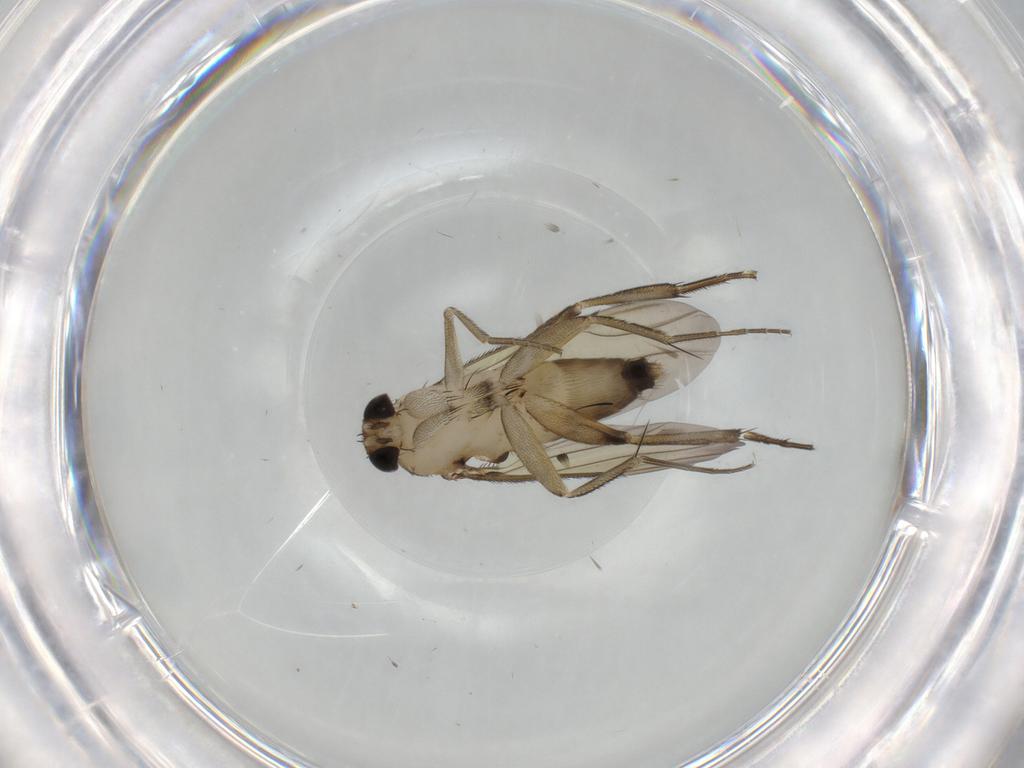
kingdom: Animalia
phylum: Arthropoda
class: Insecta
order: Diptera
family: Phoridae
